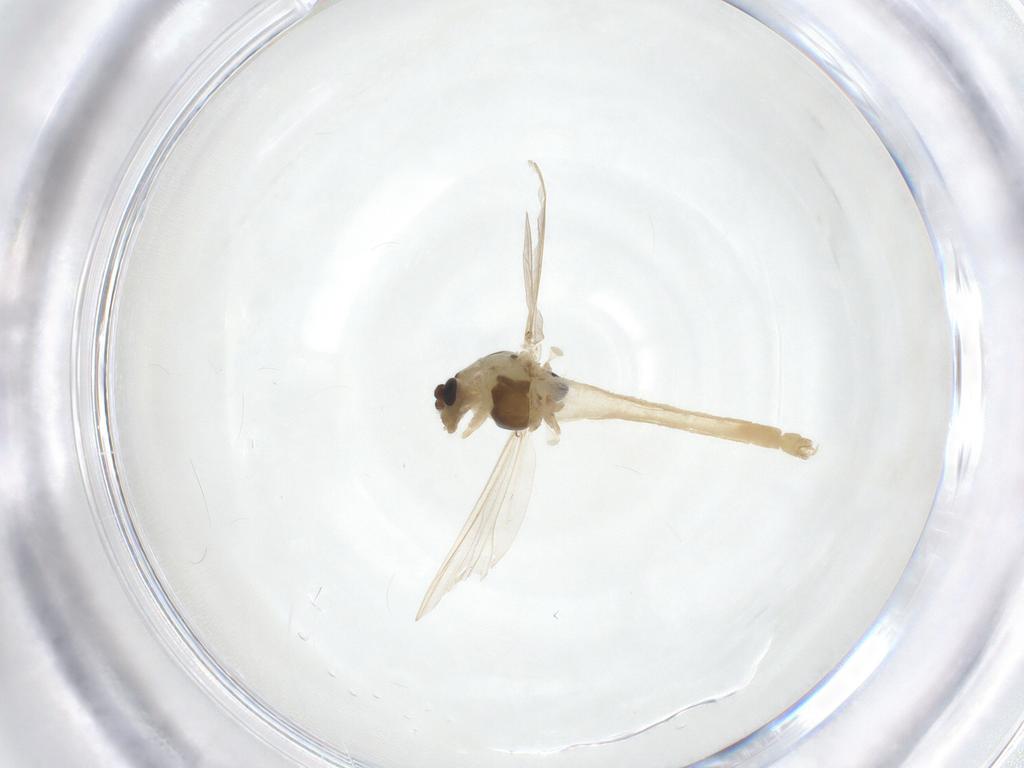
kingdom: Animalia
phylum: Arthropoda
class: Insecta
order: Diptera
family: Chironomidae
